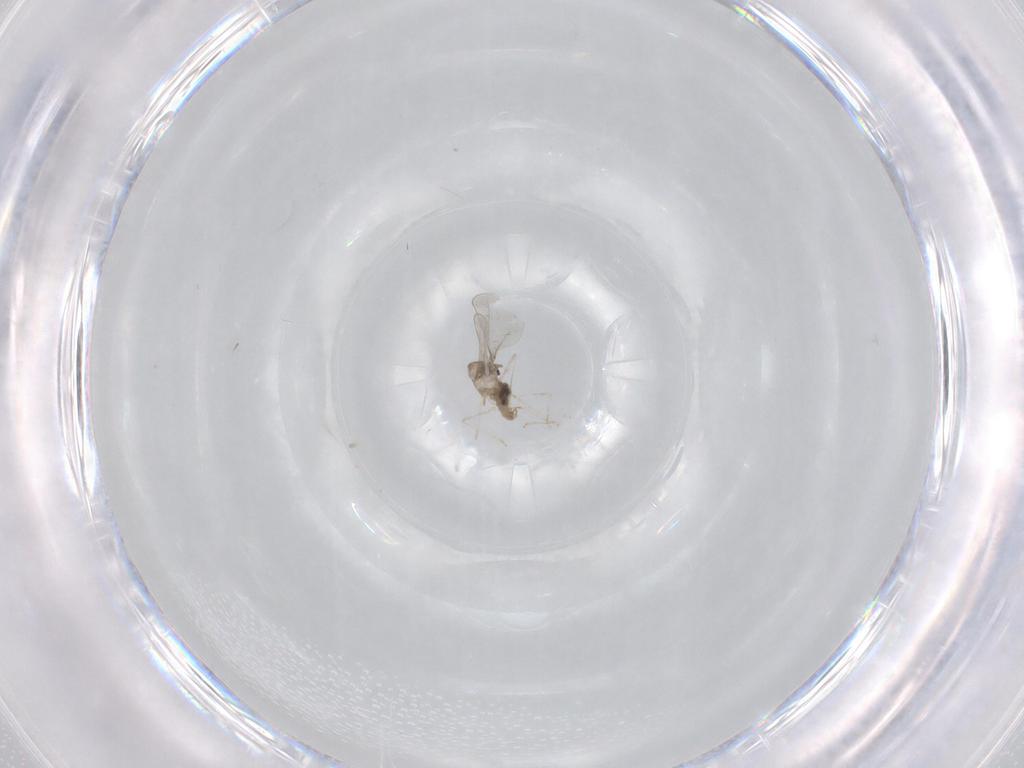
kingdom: Animalia
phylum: Arthropoda
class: Insecta
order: Diptera
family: Cecidomyiidae
